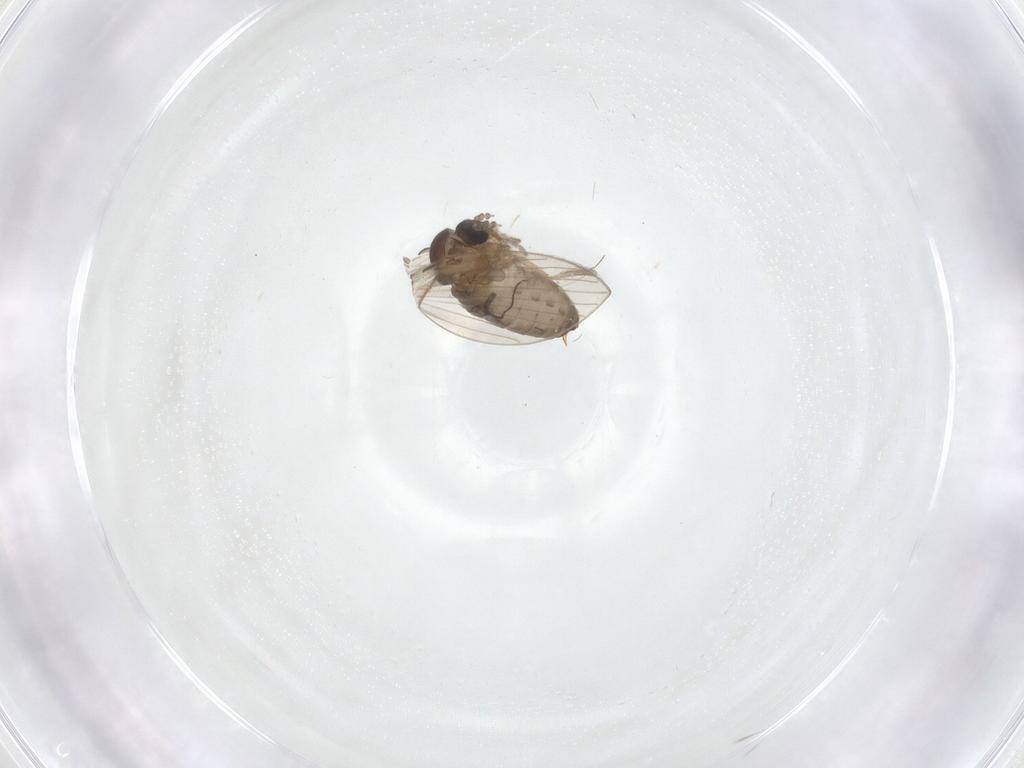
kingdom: Animalia
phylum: Arthropoda
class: Insecta
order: Diptera
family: Psychodidae
